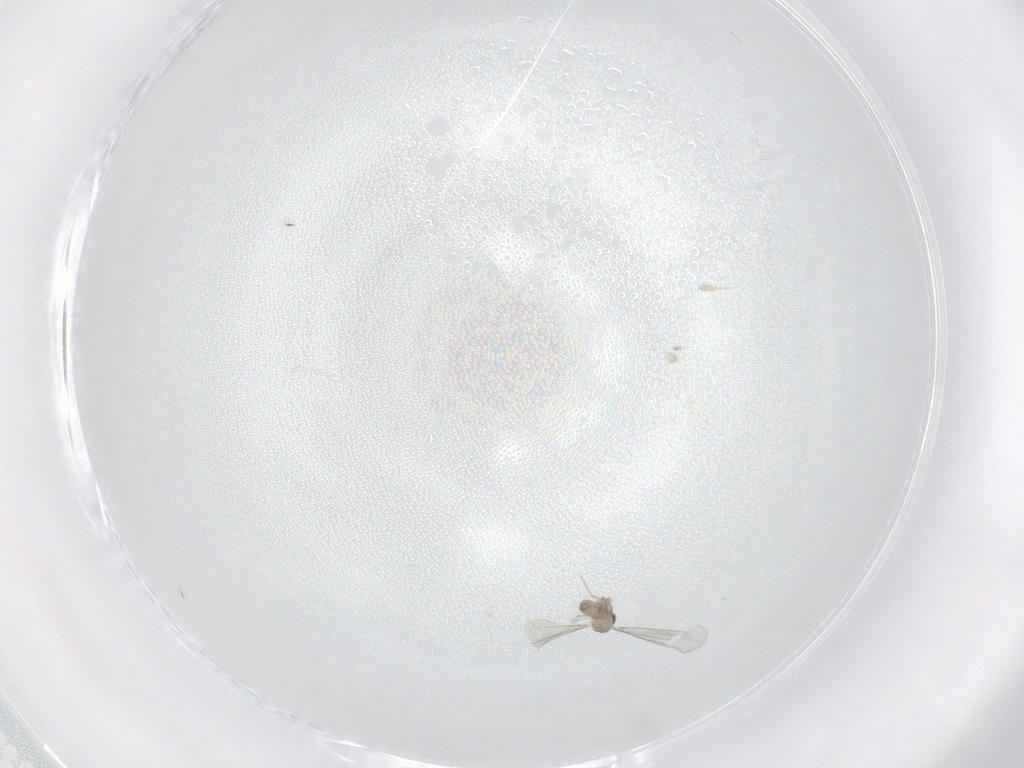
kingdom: Animalia
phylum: Arthropoda
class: Insecta
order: Diptera
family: Cecidomyiidae
